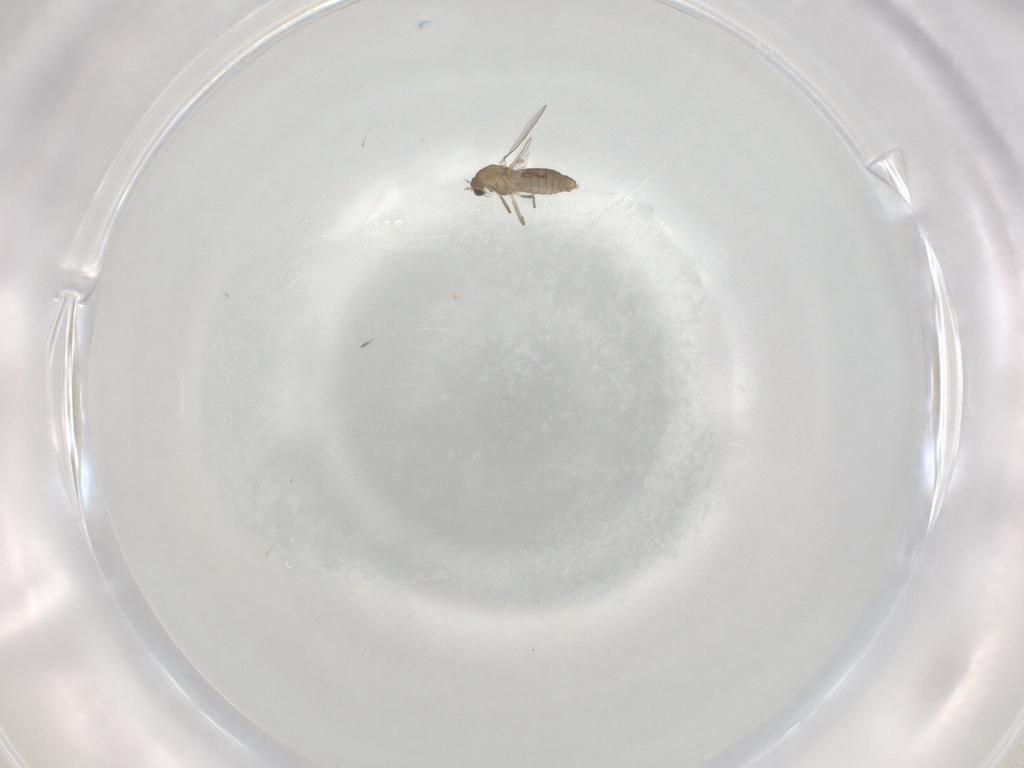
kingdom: Animalia
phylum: Arthropoda
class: Insecta
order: Diptera
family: Chironomidae
